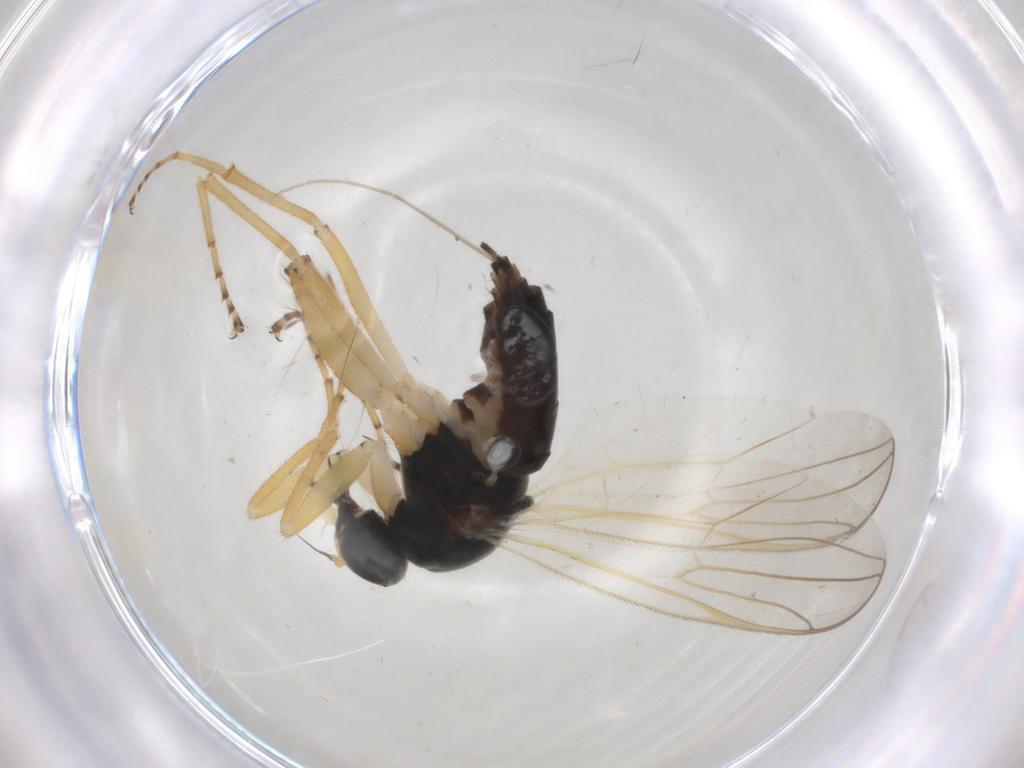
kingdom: Animalia
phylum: Arthropoda
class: Insecta
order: Diptera
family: Hybotidae
